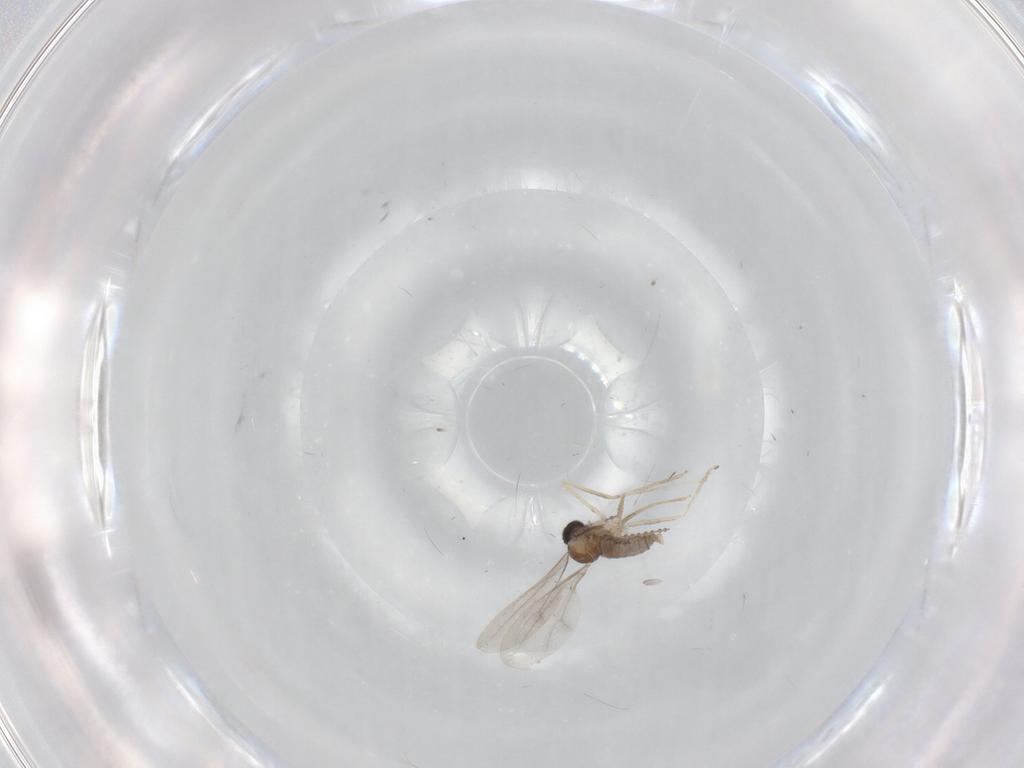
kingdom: Animalia
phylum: Arthropoda
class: Insecta
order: Diptera
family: Cecidomyiidae
